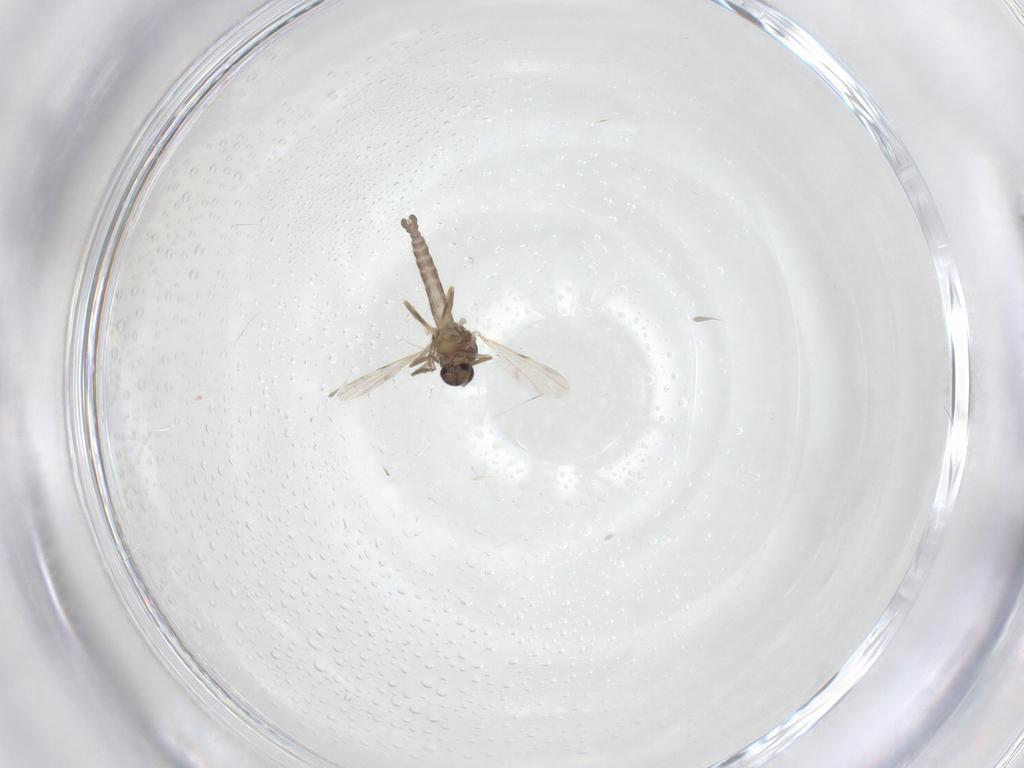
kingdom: Animalia
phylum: Arthropoda
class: Insecta
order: Diptera
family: Ceratopogonidae
